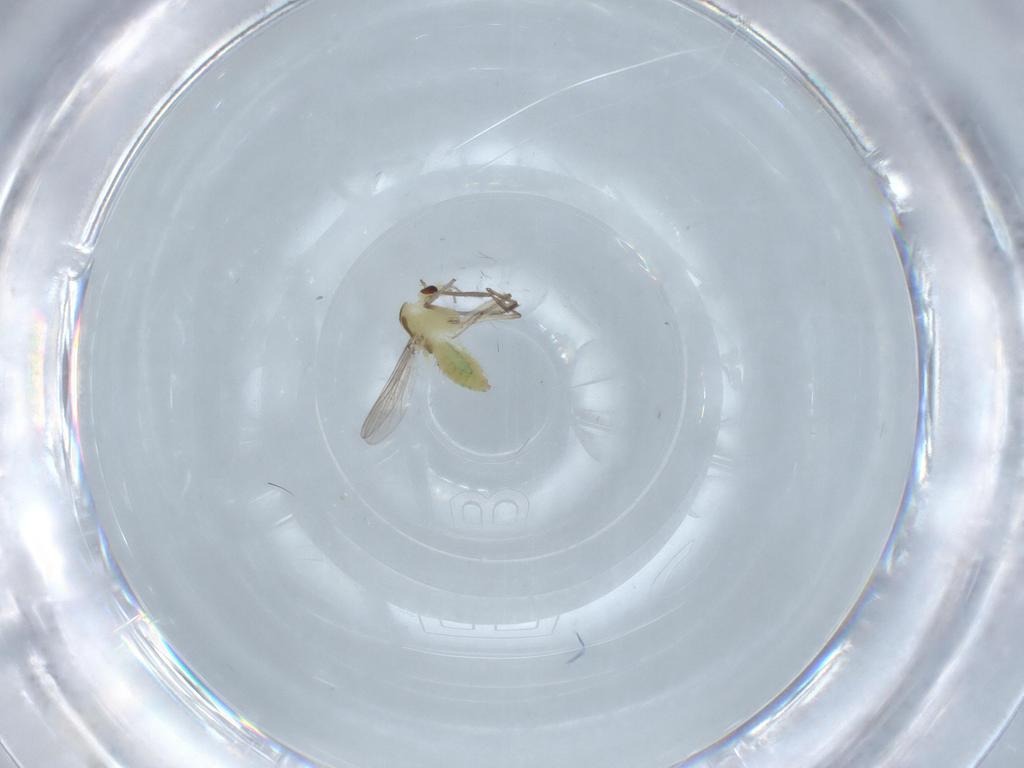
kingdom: Animalia
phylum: Arthropoda
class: Insecta
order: Diptera
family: Chironomidae
